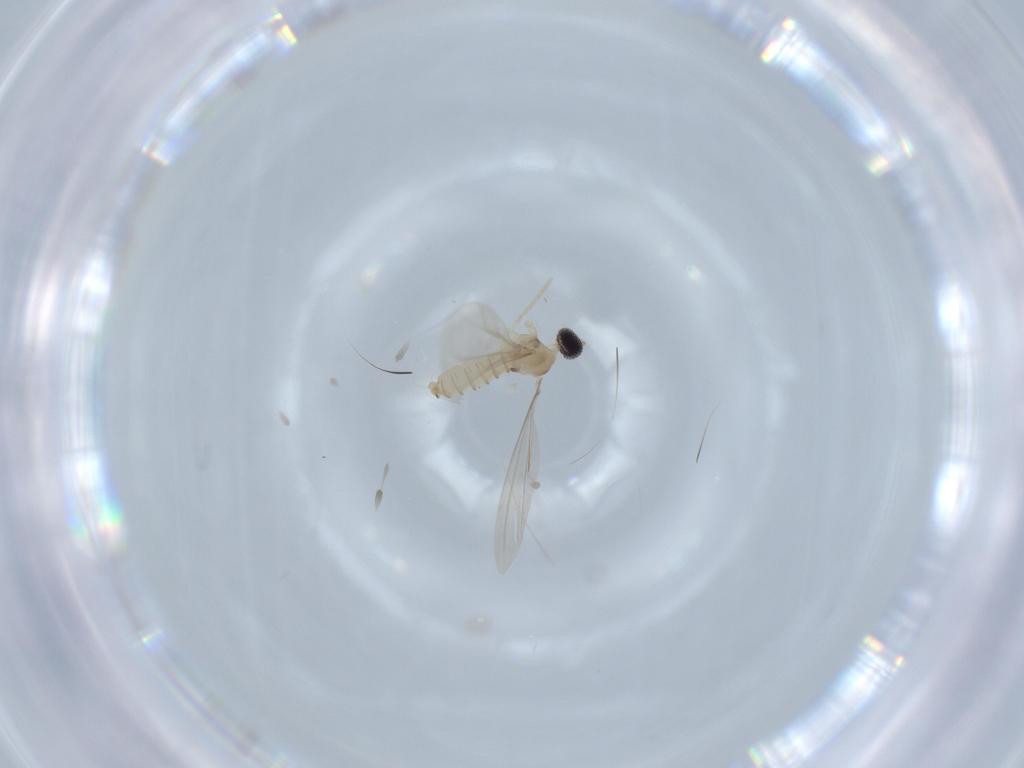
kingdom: Animalia
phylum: Arthropoda
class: Insecta
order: Diptera
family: Cecidomyiidae
